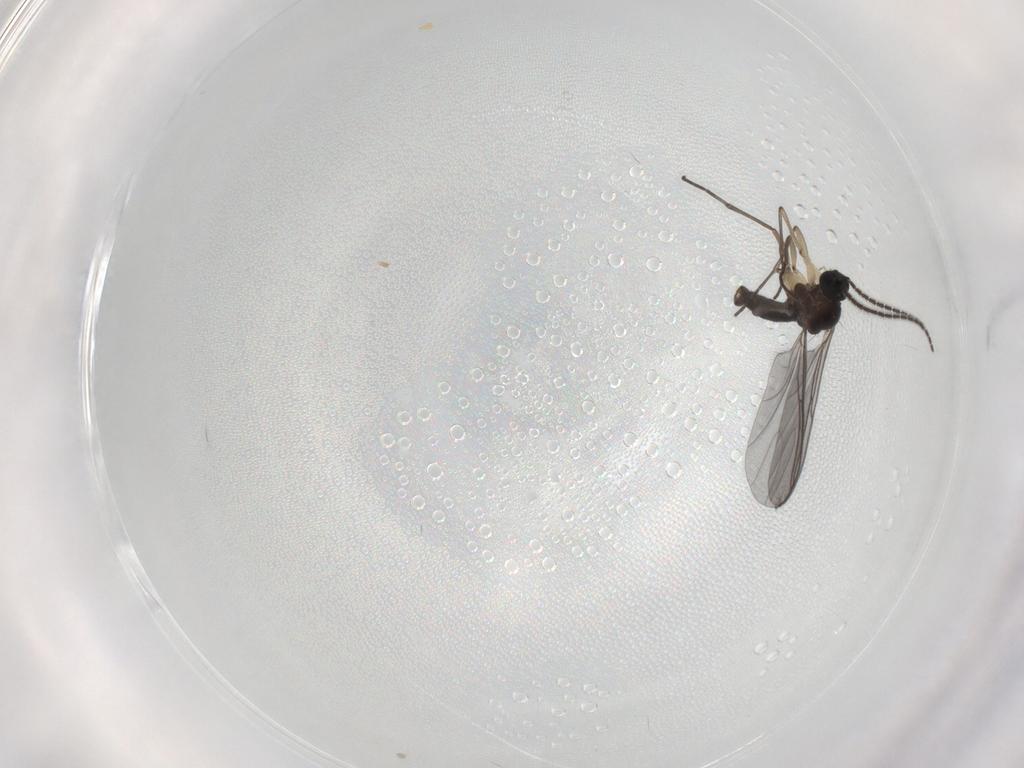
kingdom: Animalia
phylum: Arthropoda
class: Insecta
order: Diptera
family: Sciaridae
